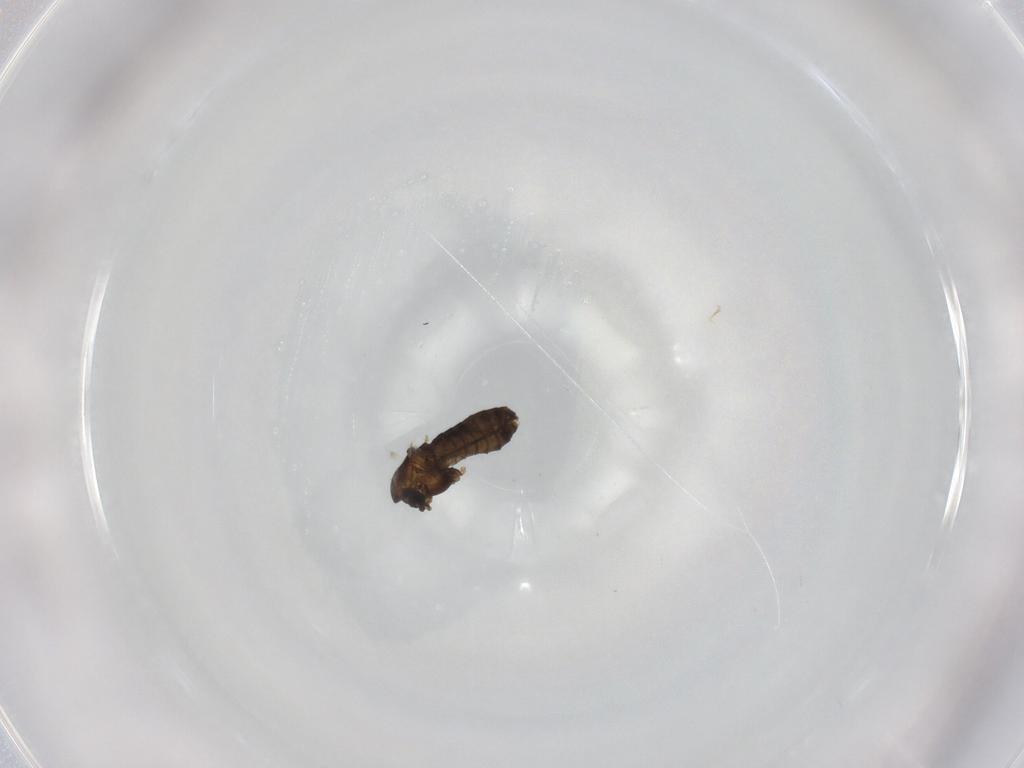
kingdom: Animalia
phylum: Arthropoda
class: Insecta
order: Diptera
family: Chironomidae
